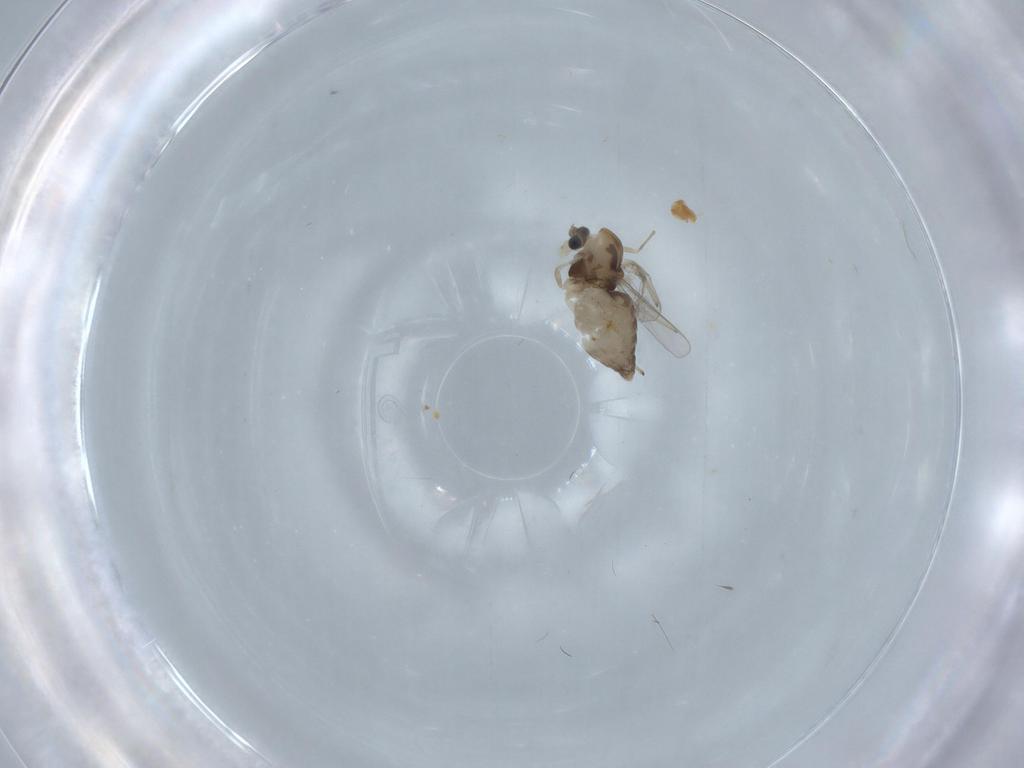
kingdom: Animalia
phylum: Arthropoda
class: Insecta
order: Diptera
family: Chironomidae
